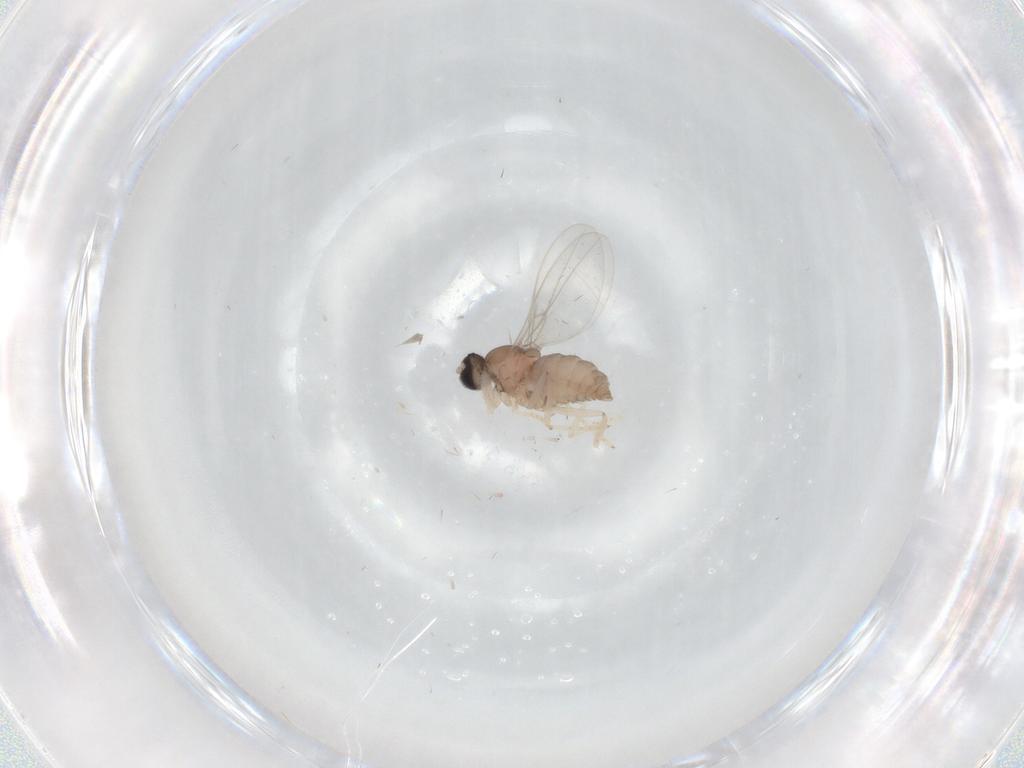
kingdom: Animalia
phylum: Arthropoda
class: Insecta
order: Diptera
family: Cecidomyiidae
